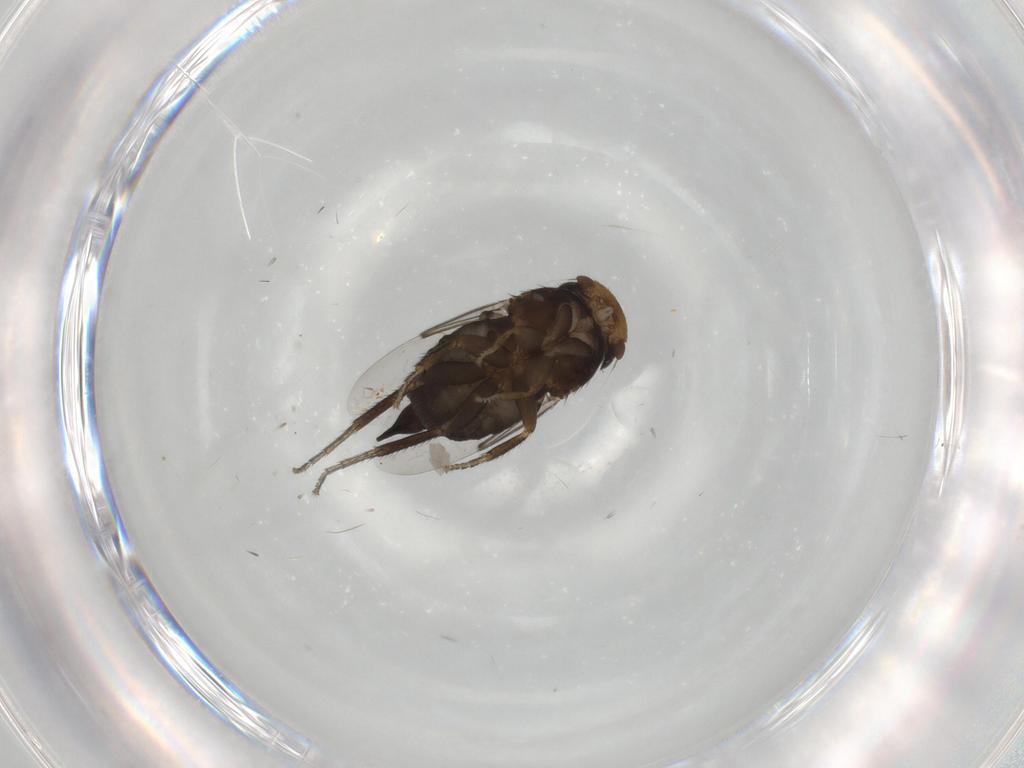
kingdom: Animalia
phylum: Arthropoda
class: Insecta
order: Diptera
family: Phoridae
